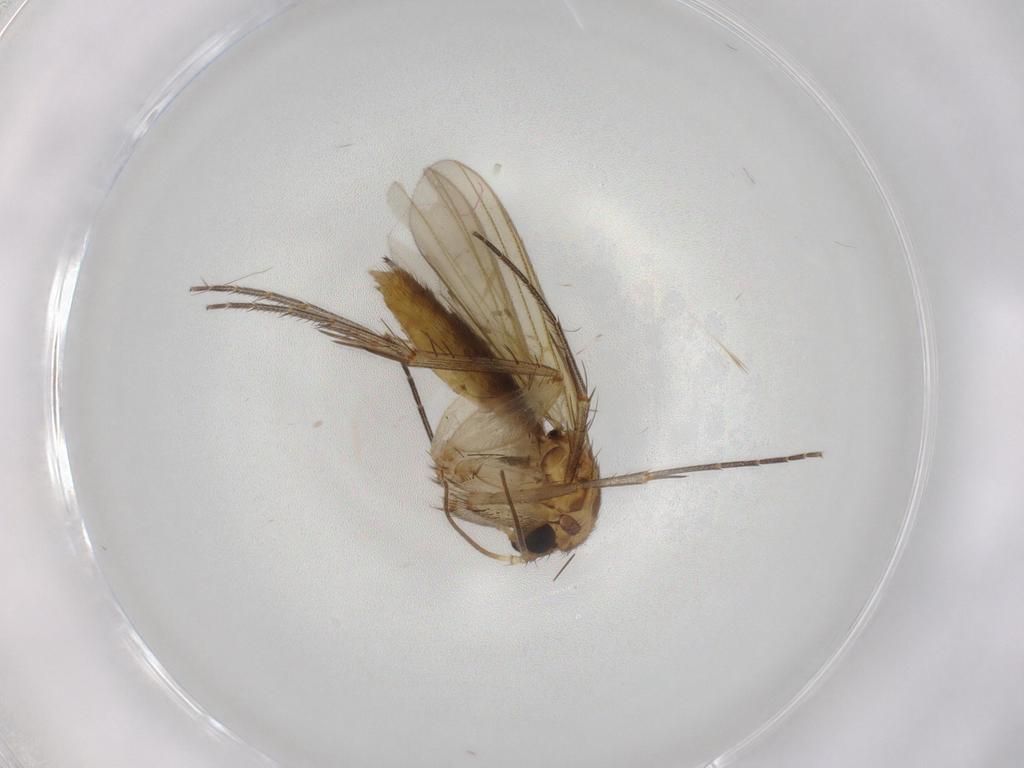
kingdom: Animalia
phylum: Arthropoda
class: Insecta
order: Diptera
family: Mycetophilidae
